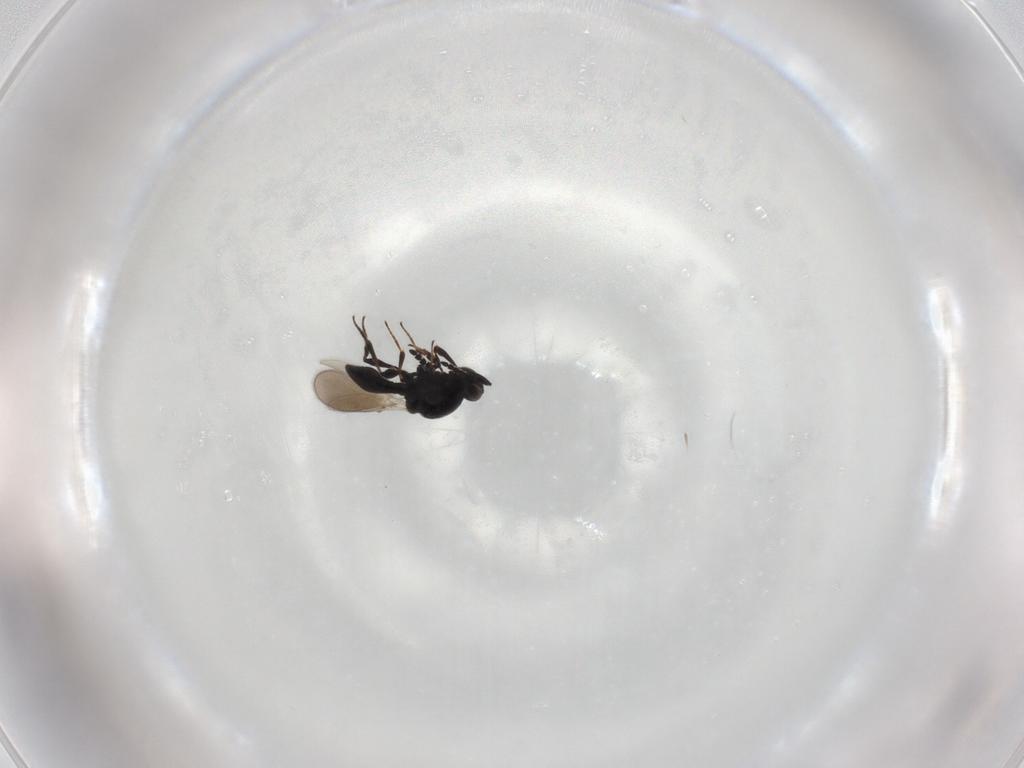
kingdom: Animalia
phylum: Arthropoda
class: Insecta
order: Hymenoptera
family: Platygastridae
